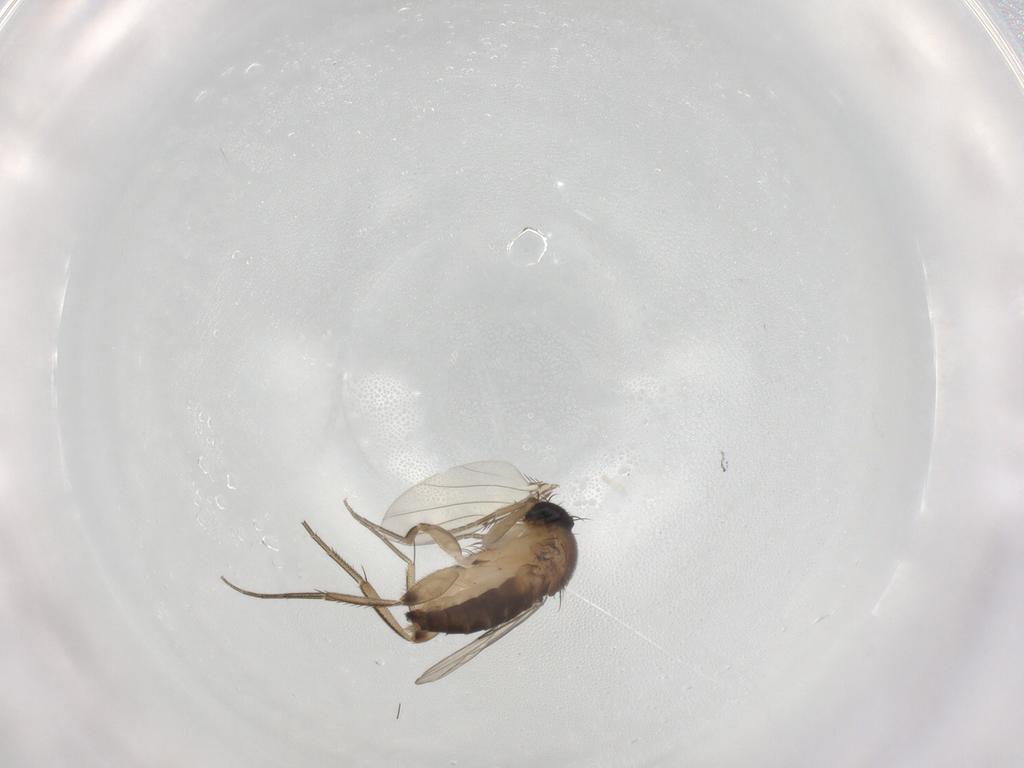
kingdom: Animalia
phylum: Arthropoda
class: Insecta
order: Diptera
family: Phoridae
